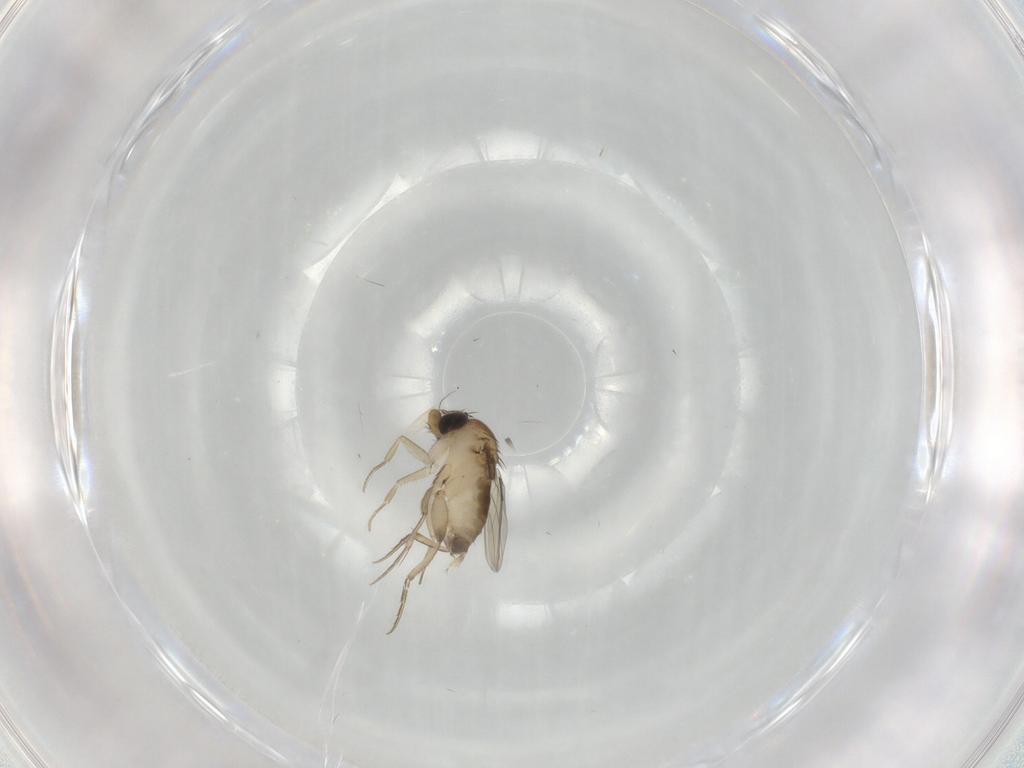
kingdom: Animalia
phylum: Arthropoda
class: Insecta
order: Diptera
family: Phoridae
